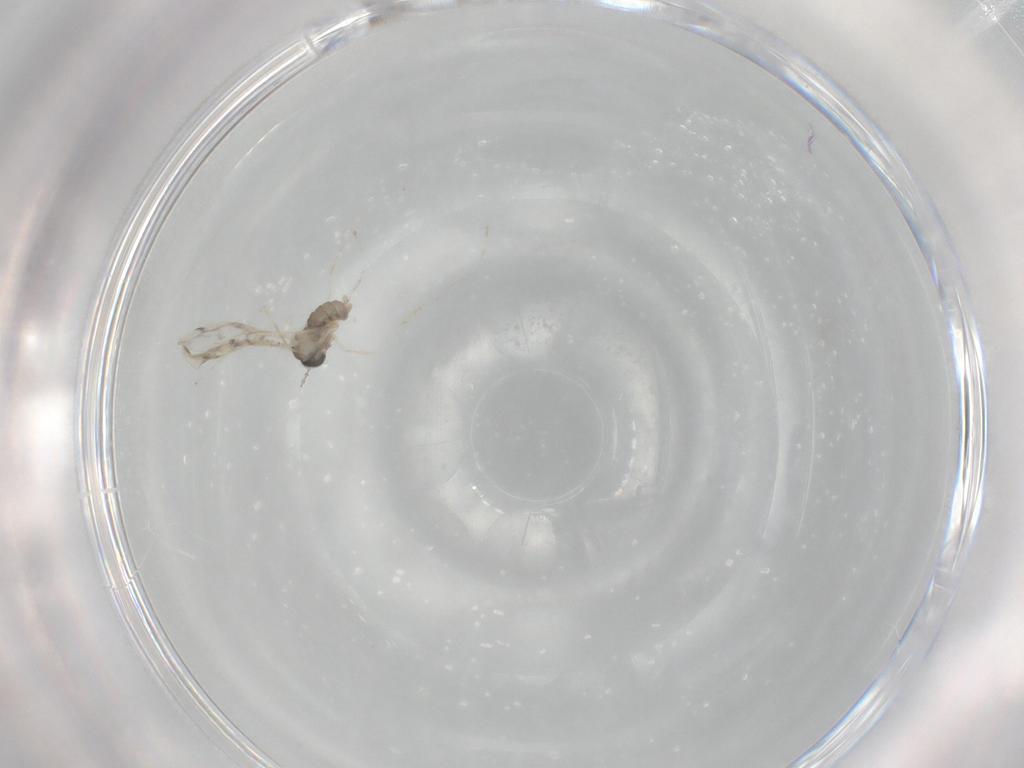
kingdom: Animalia
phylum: Arthropoda
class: Insecta
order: Diptera
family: Cecidomyiidae
